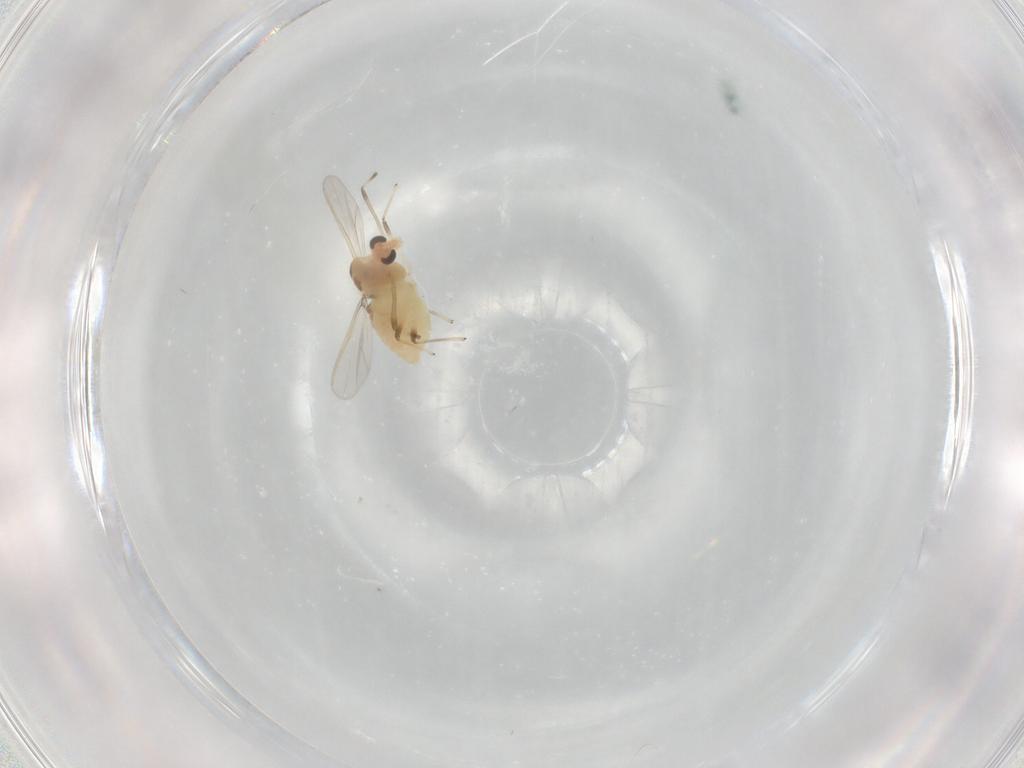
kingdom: Animalia
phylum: Arthropoda
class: Insecta
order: Diptera
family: Chironomidae
